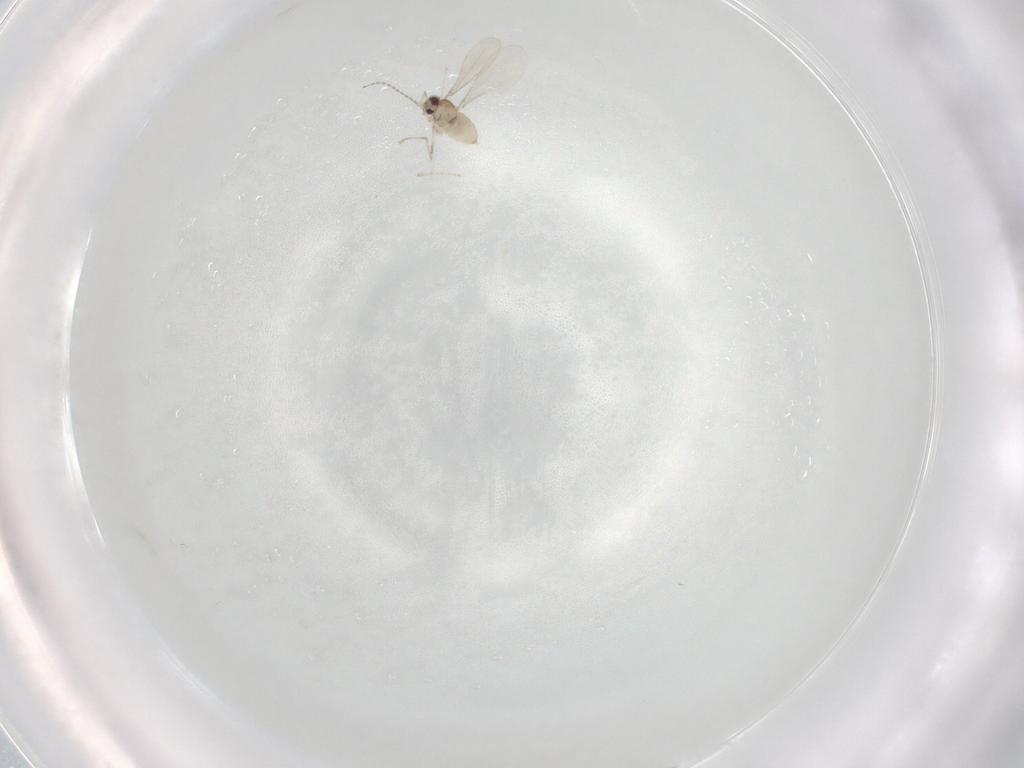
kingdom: Animalia
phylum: Arthropoda
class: Insecta
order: Diptera
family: Cecidomyiidae
